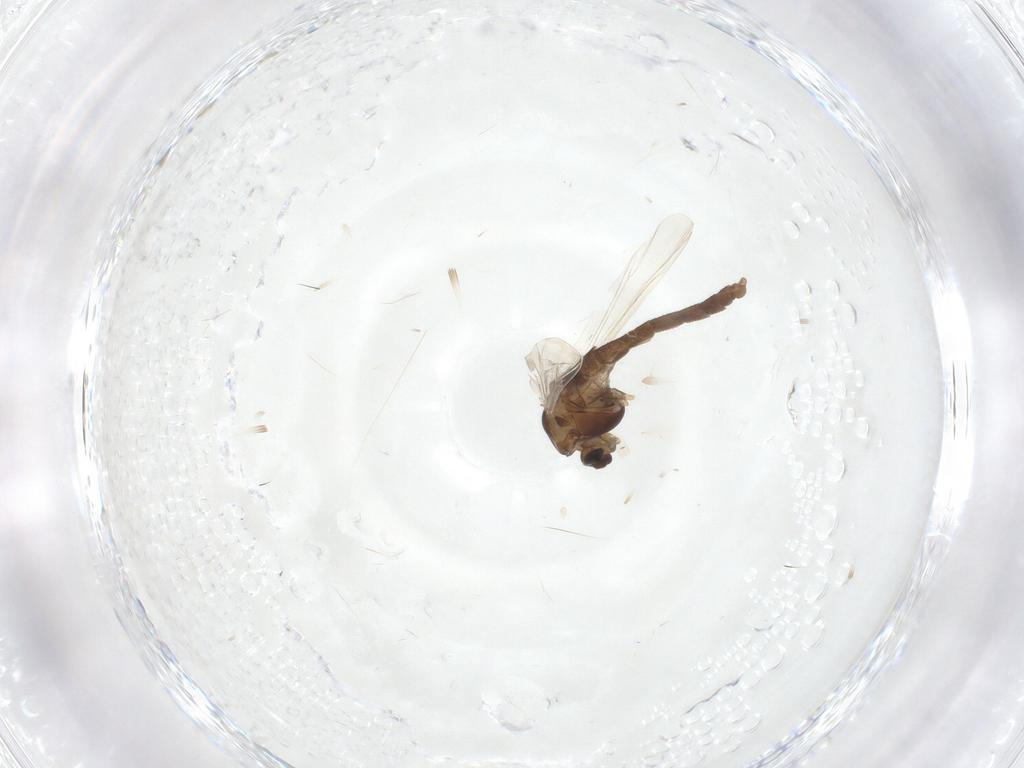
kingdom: Animalia
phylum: Arthropoda
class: Insecta
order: Diptera
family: Chironomidae
